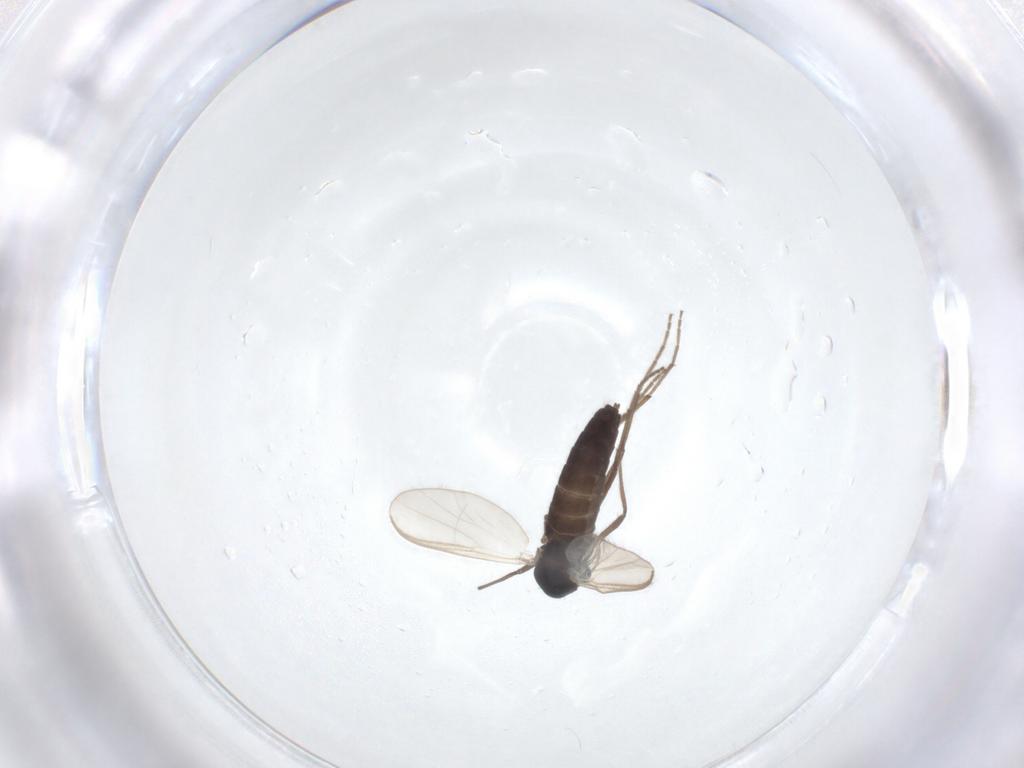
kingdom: Animalia
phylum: Arthropoda
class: Insecta
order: Diptera
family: Chironomidae
